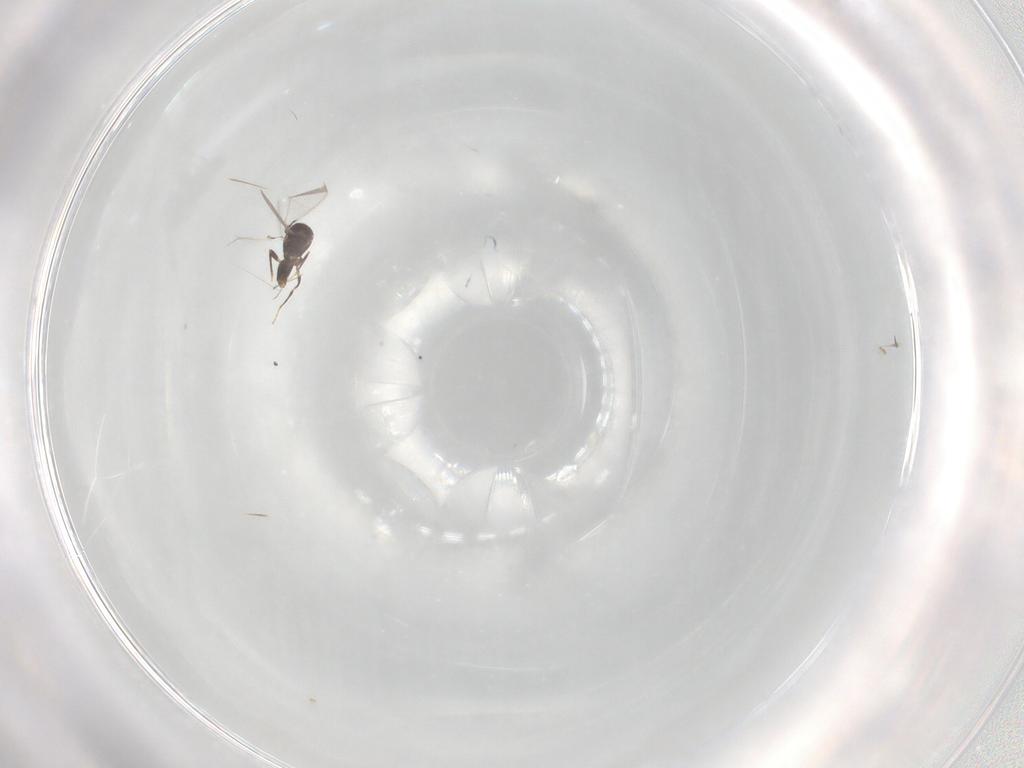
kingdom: Animalia
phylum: Arthropoda
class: Insecta
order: Hymenoptera
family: Mymaridae
